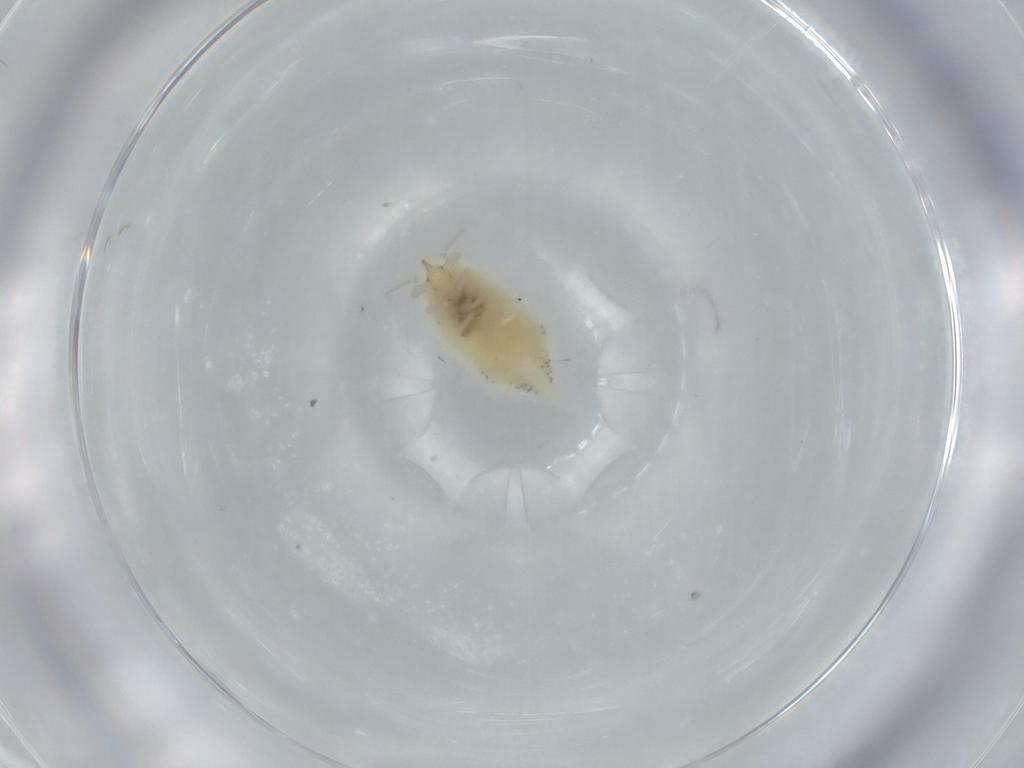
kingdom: Animalia
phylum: Arthropoda
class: Insecta
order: Neuroptera
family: Coniopterygidae
